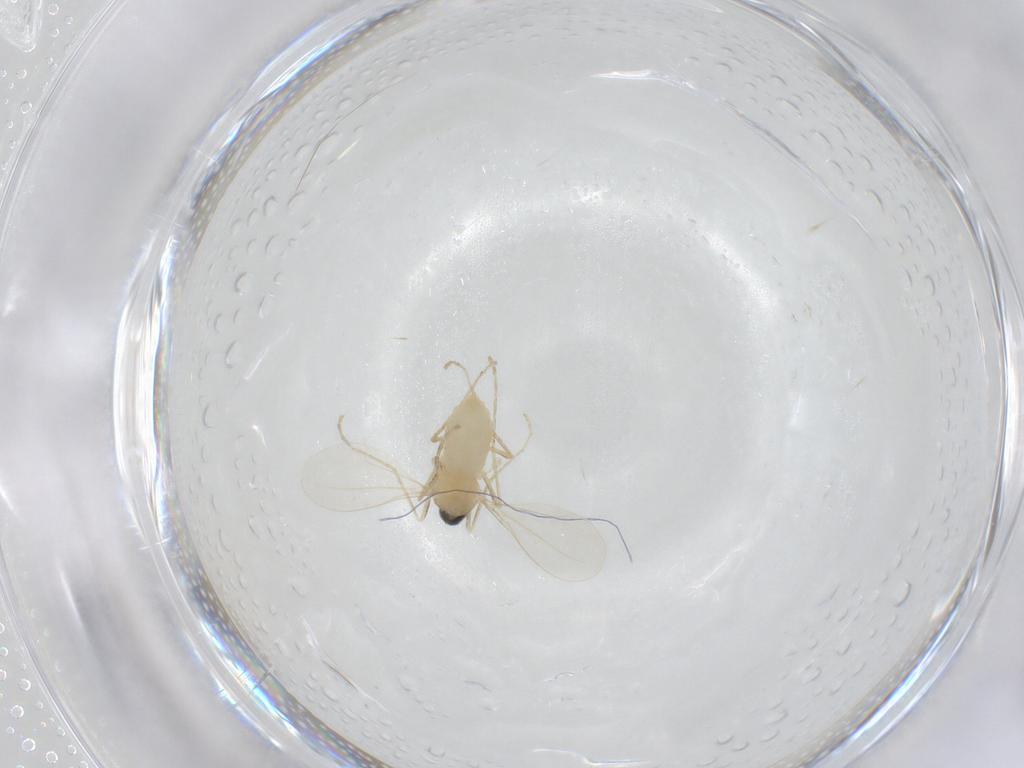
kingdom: Animalia
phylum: Arthropoda
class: Insecta
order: Diptera
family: Cecidomyiidae
